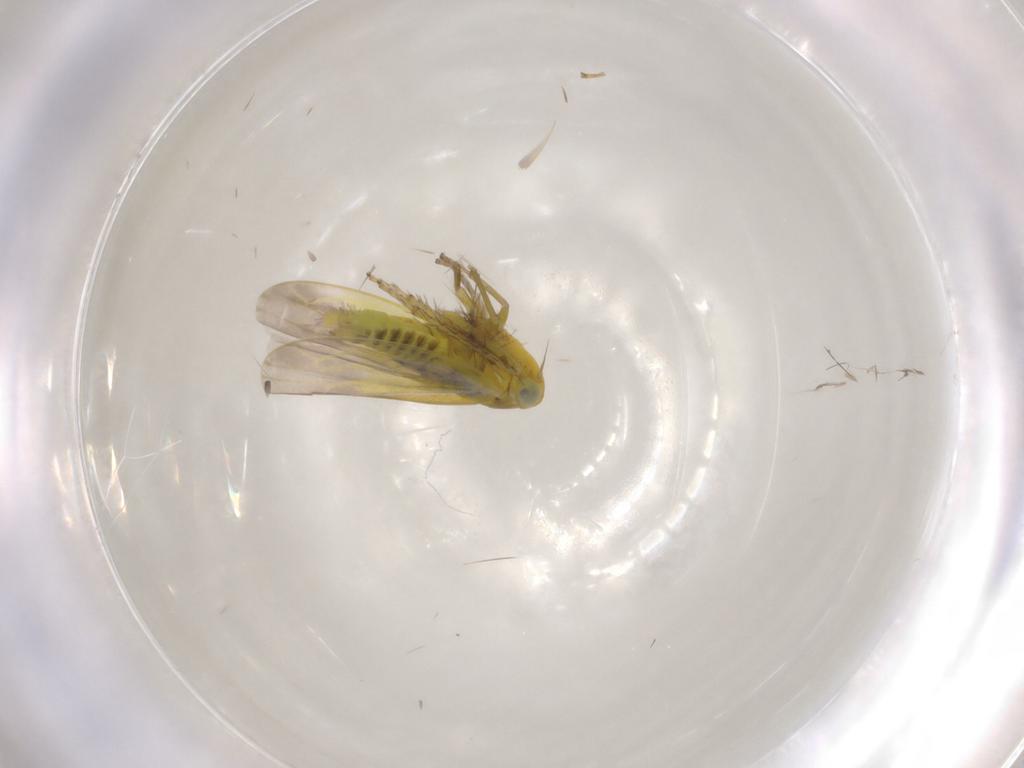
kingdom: Animalia
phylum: Arthropoda
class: Insecta
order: Hemiptera
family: Cicadellidae
